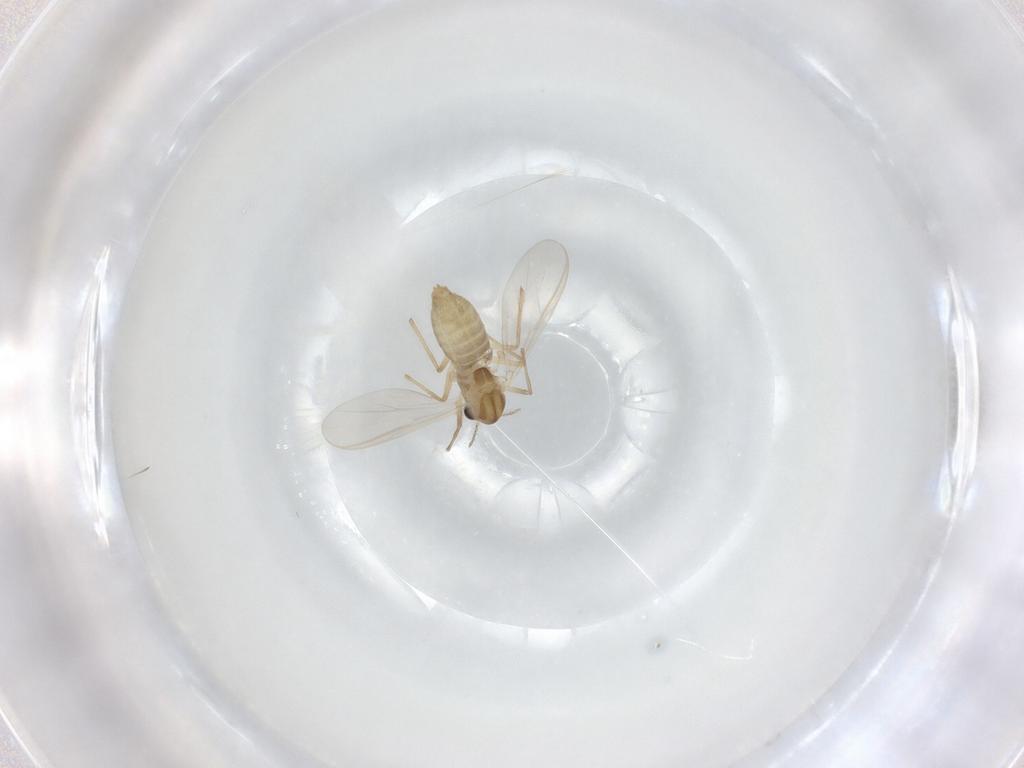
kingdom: Animalia
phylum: Arthropoda
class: Insecta
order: Diptera
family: Chironomidae
